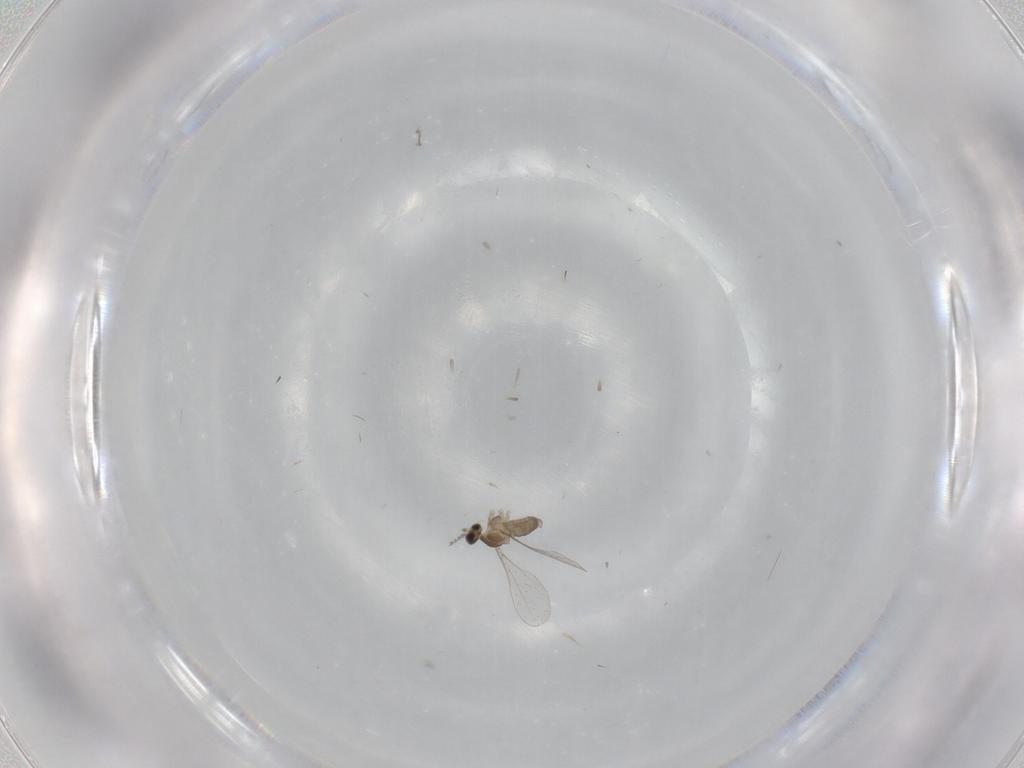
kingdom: Animalia
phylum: Arthropoda
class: Insecta
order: Diptera
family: Cecidomyiidae
